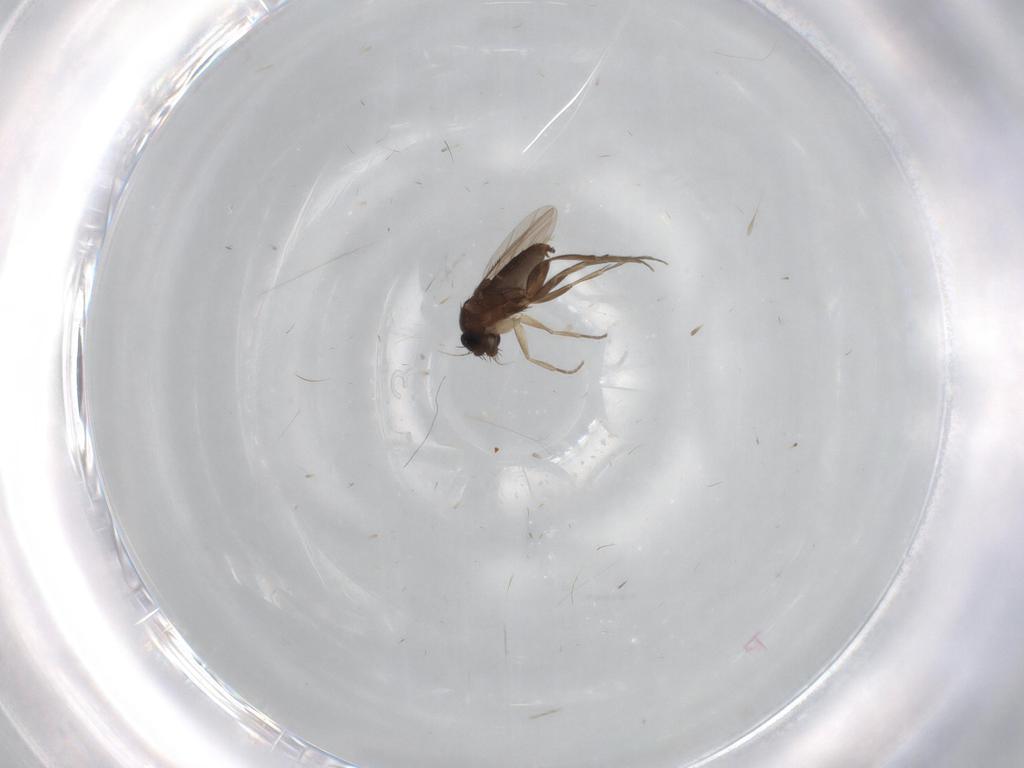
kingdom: Animalia
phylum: Arthropoda
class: Insecta
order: Diptera
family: Phoridae
